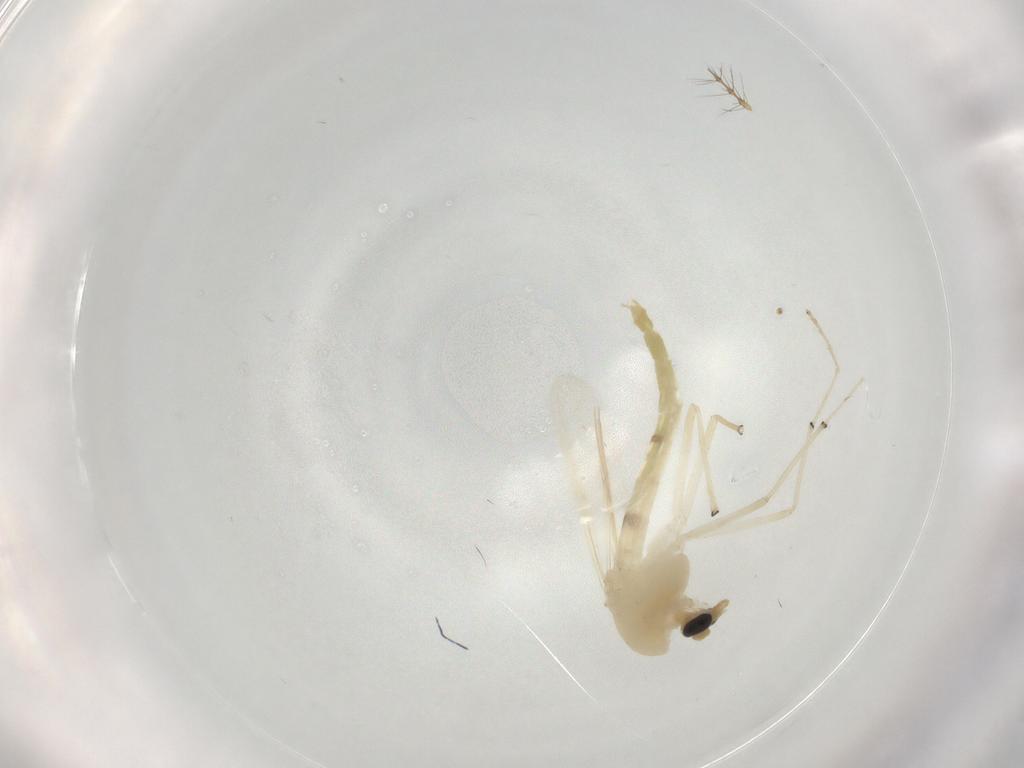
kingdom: Animalia
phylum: Arthropoda
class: Insecta
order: Diptera
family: Chironomidae
